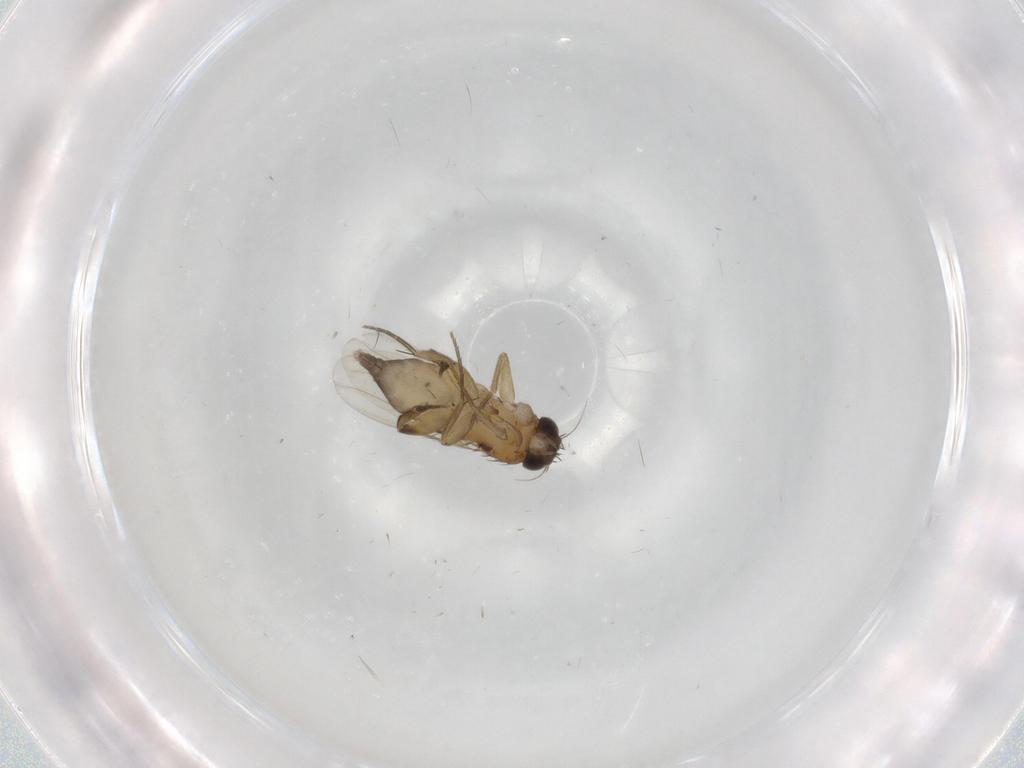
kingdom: Animalia
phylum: Arthropoda
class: Insecta
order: Diptera
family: Phoridae
